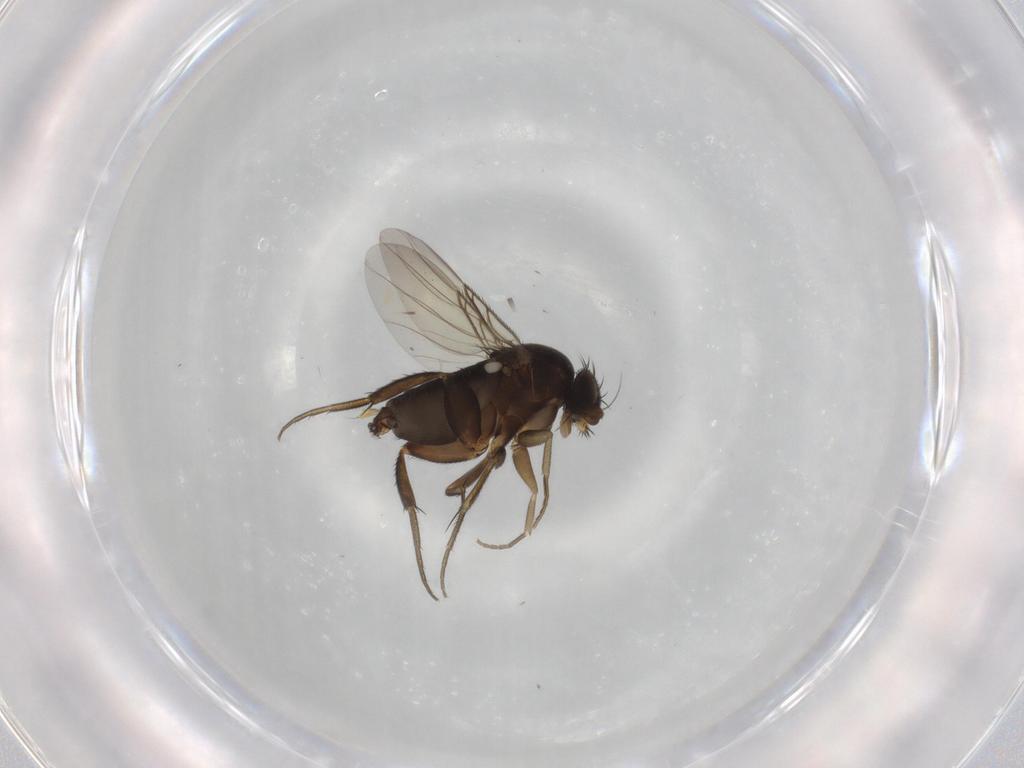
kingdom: Animalia
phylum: Arthropoda
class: Insecta
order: Diptera
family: Phoridae
